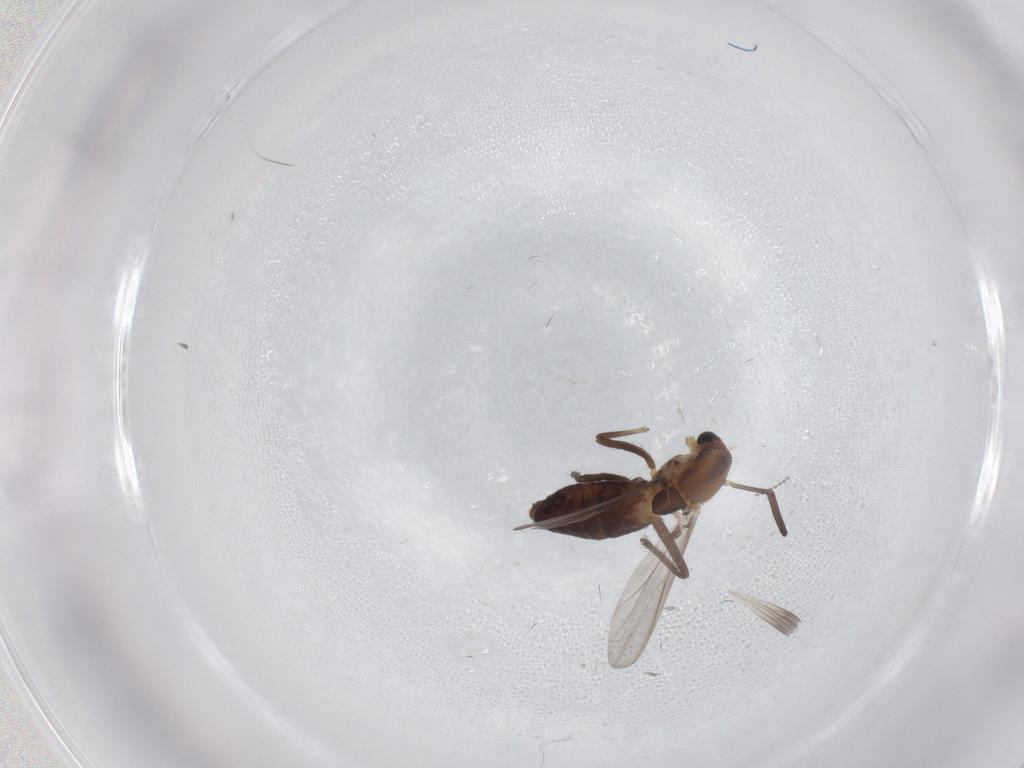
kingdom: Animalia
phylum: Arthropoda
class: Insecta
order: Diptera
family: Chironomidae
